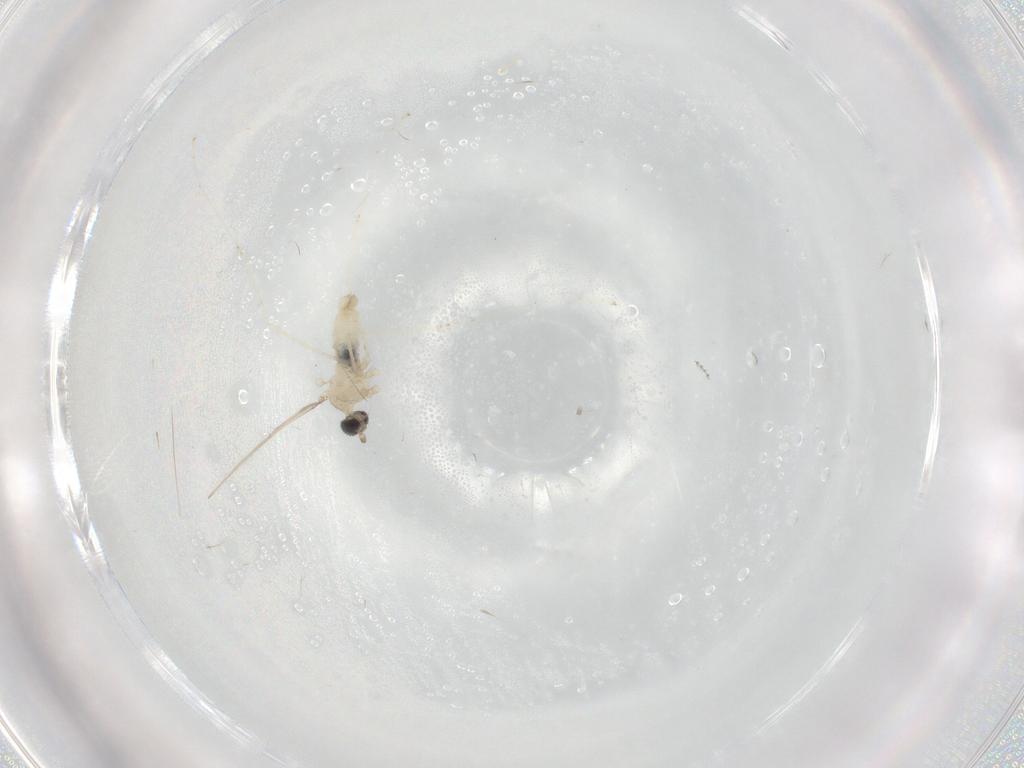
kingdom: Animalia
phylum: Arthropoda
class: Insecta
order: Diptera
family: Cecidomyiidae
